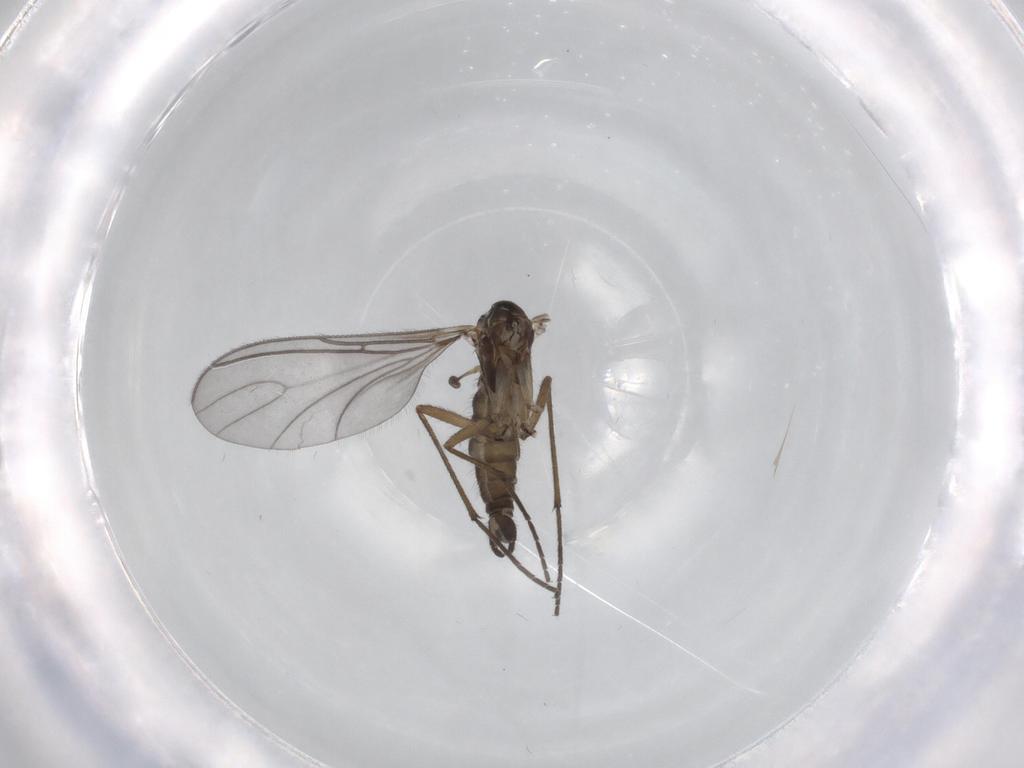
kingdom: Animalia
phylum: Arthropoda
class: Insecta
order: Diptera
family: Sciaridae
